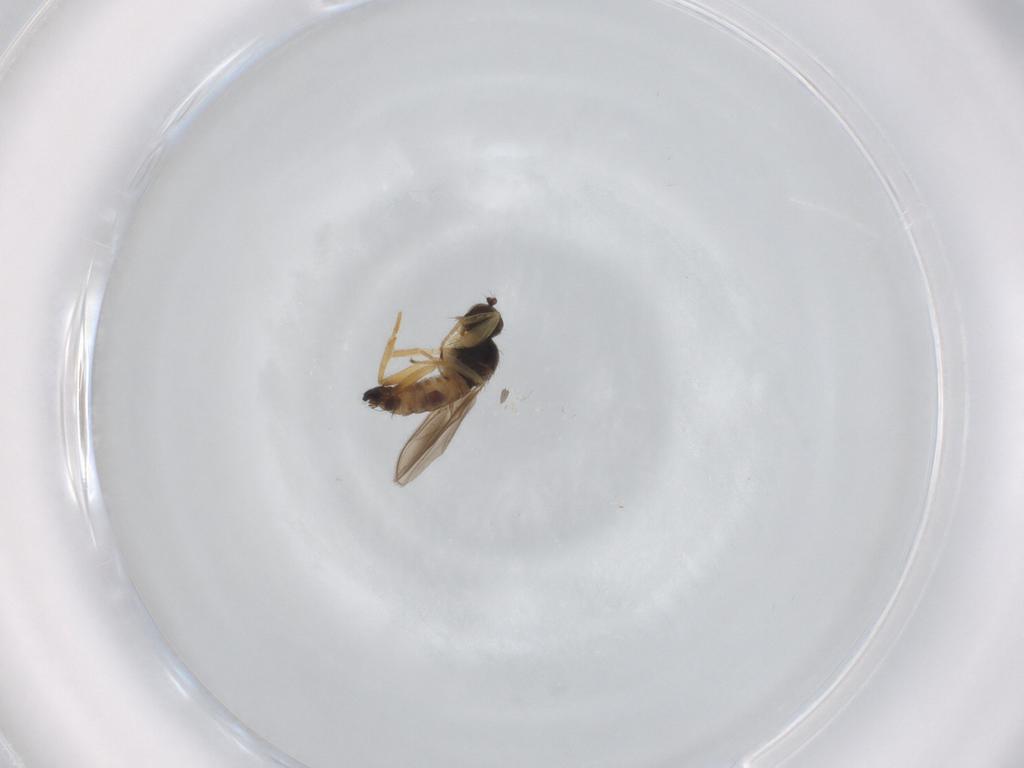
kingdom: Animalia
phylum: Arthropoda
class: Insecta
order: Diptera
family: Hybotidae
